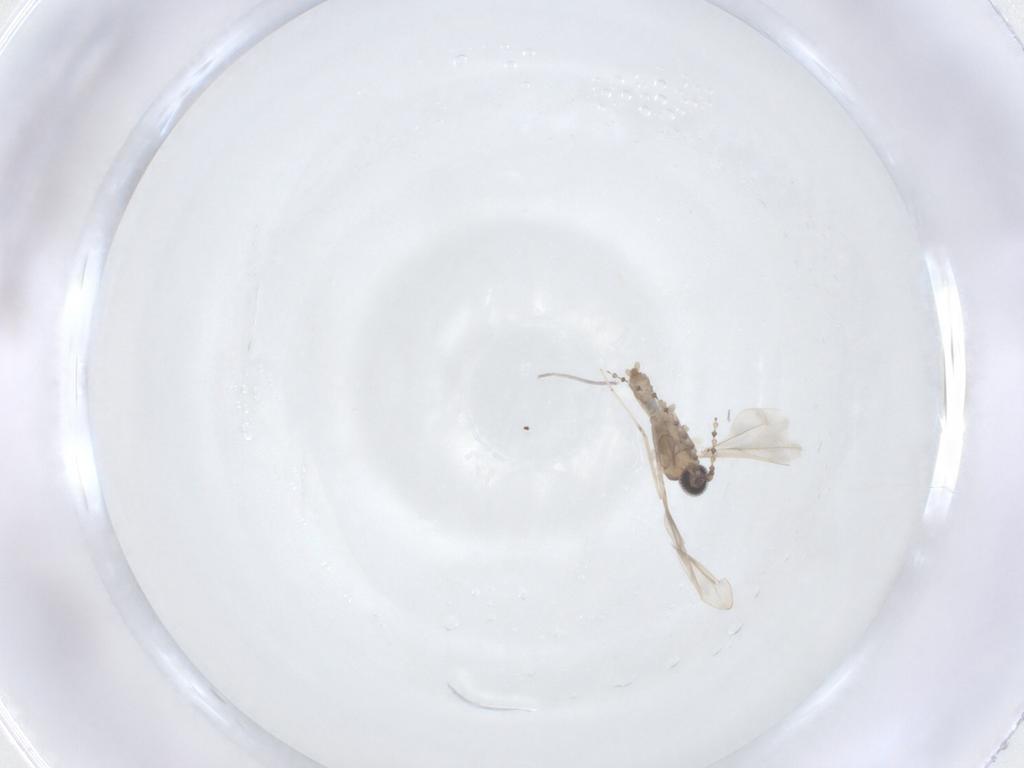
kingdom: Animalia
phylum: Arthropoda
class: Insecta
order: Diptera
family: Cecidomyiidae
